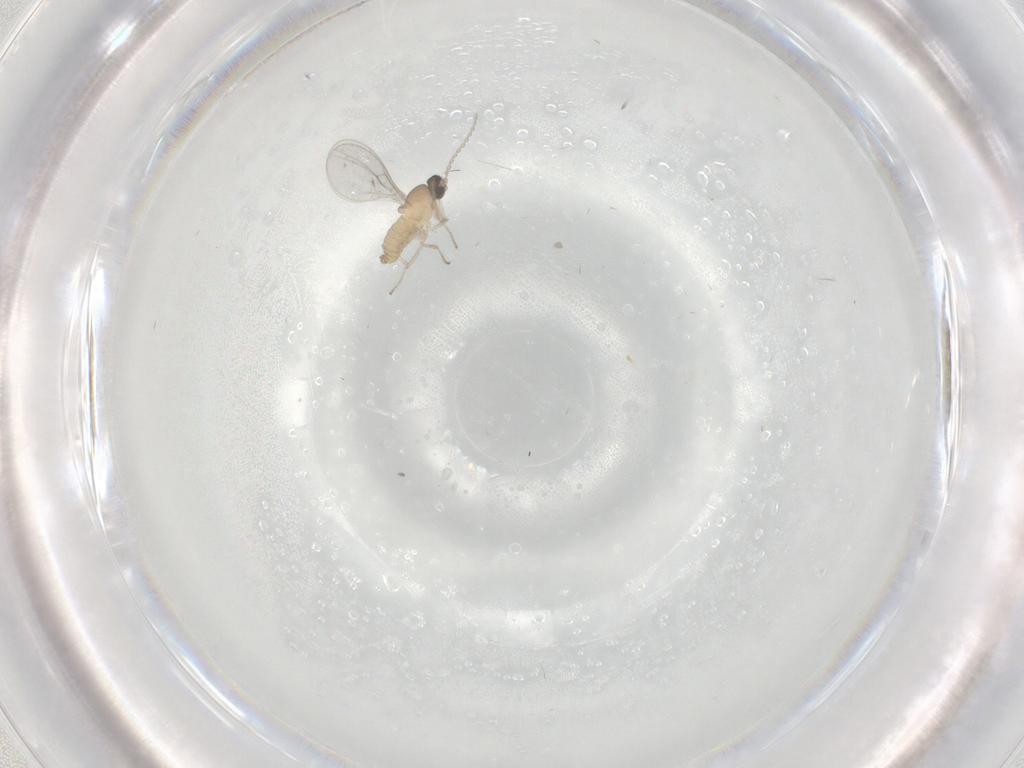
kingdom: Animalia
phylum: Arthropoda
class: Insecta
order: Diptera
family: Cecidomyiidae
